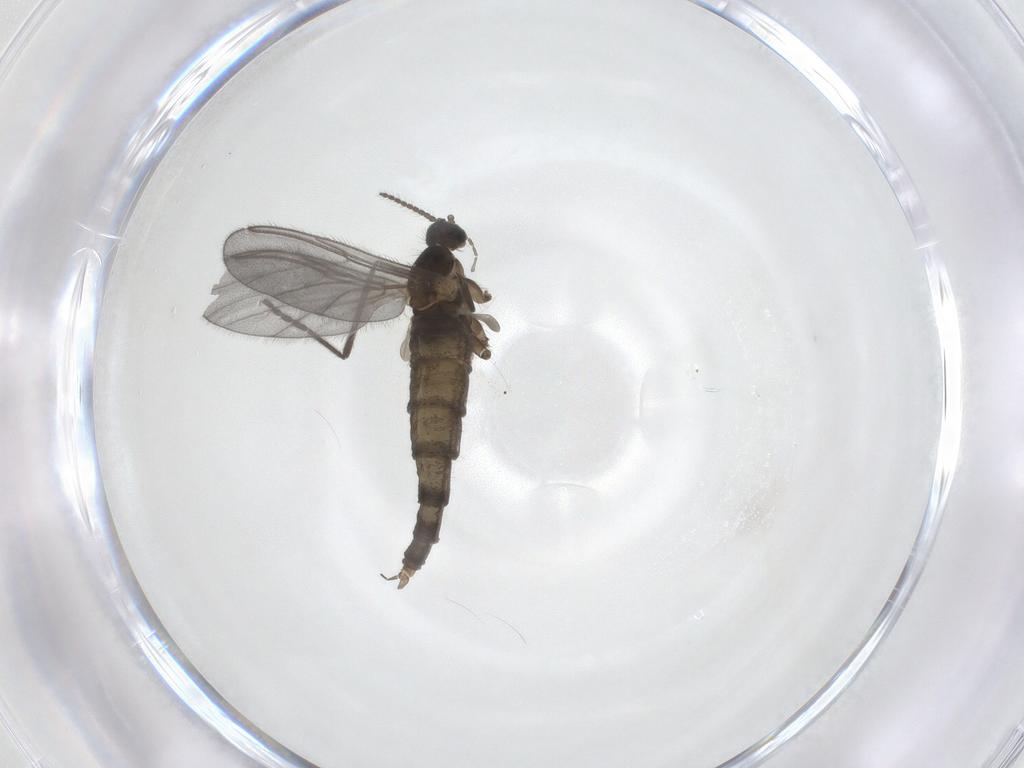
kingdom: Animalia
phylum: Arthropoda
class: Insecta
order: Diptera
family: Cecidomyiidae
